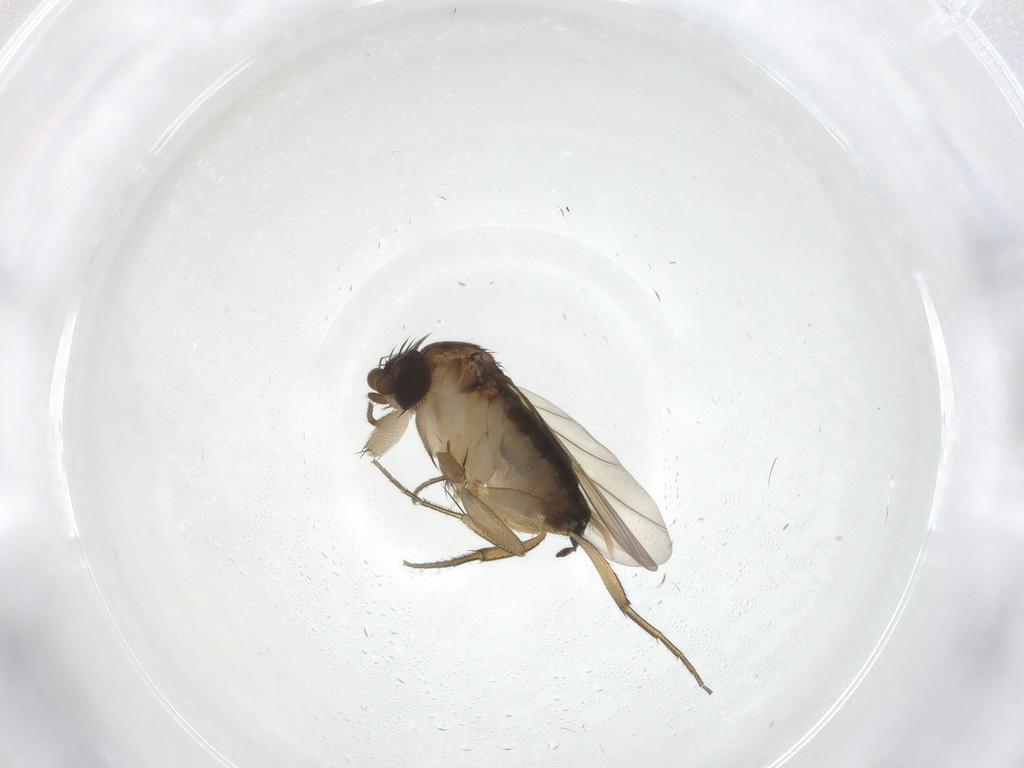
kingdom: Animalia
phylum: Arthropoda
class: Insecta
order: Diptera
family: Phoridae
